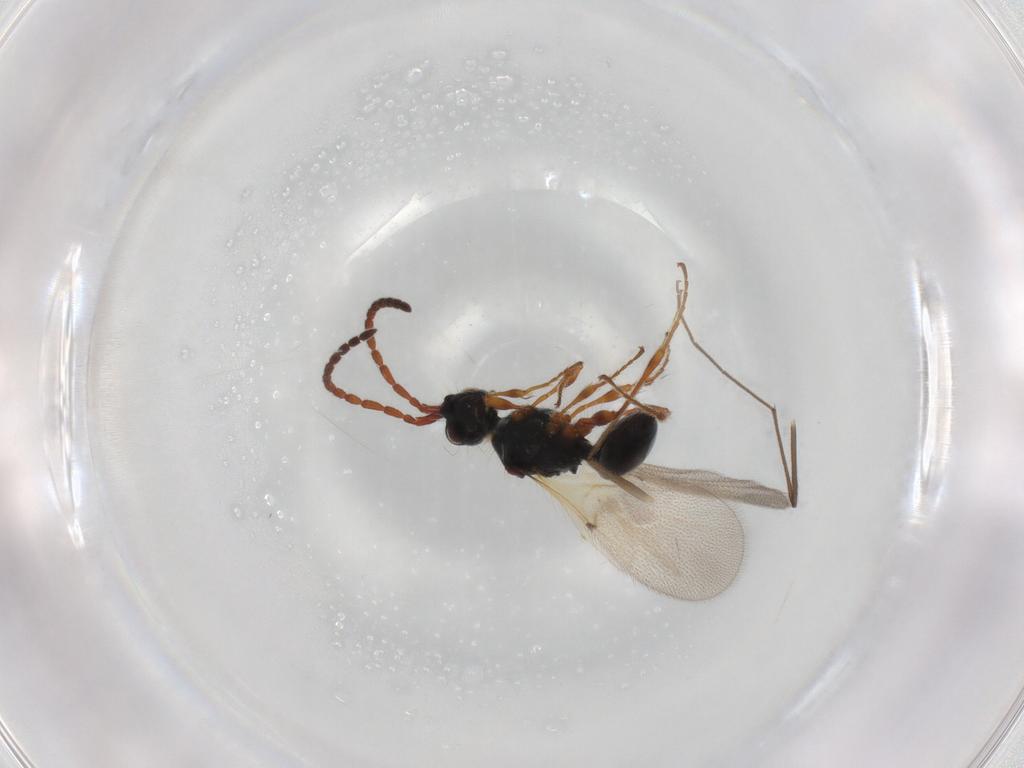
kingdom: Animalia
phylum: Arthropoda
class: Insecta
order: Hymenoptera
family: Diapriidae
